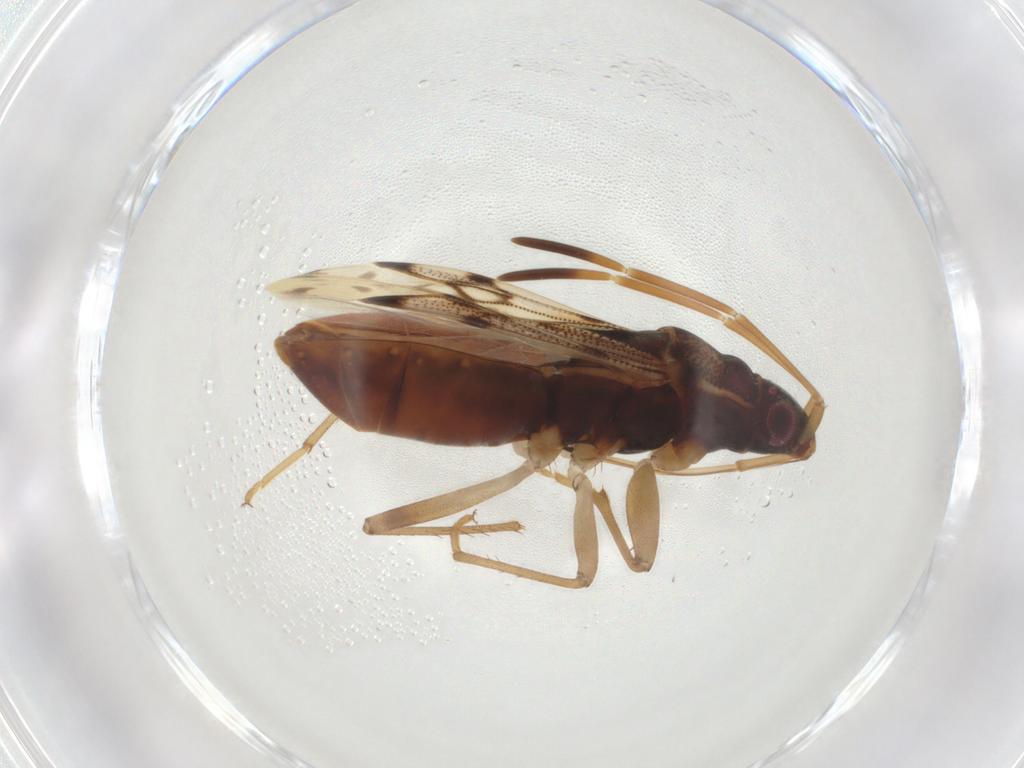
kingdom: Animalia
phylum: Arthropoda
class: Insecta
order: Hemiptera
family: Rhyparochromidae
